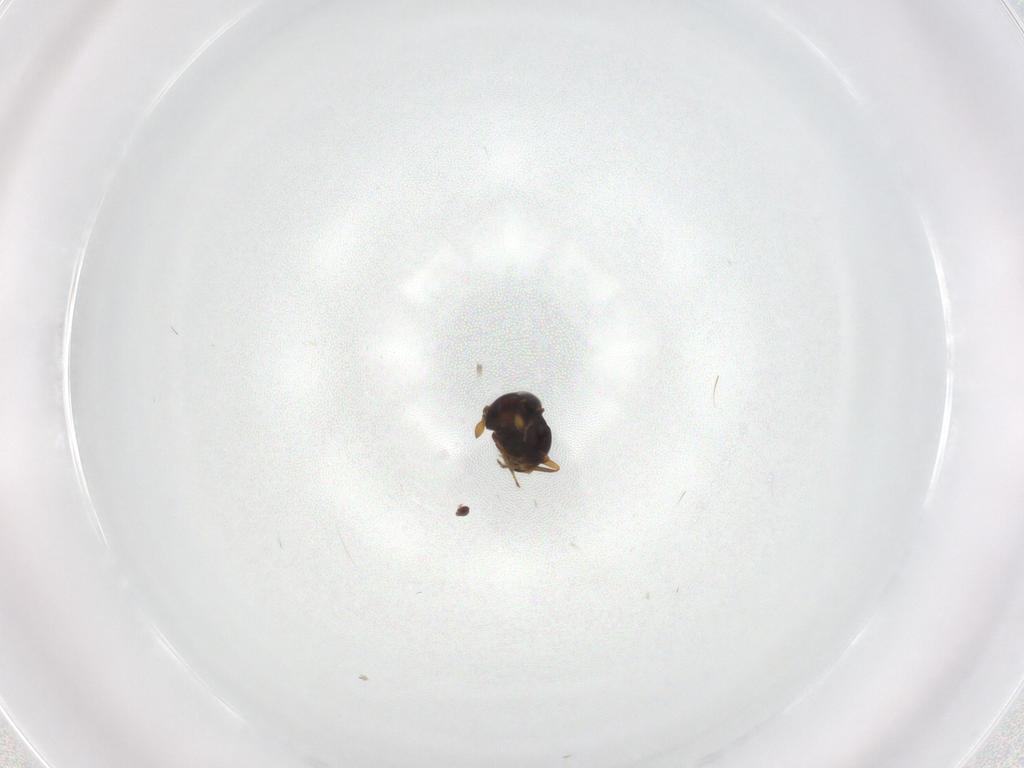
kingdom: Animalia
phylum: Arthropoda
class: Insecta
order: Hymenoptera
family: Scelionidae
